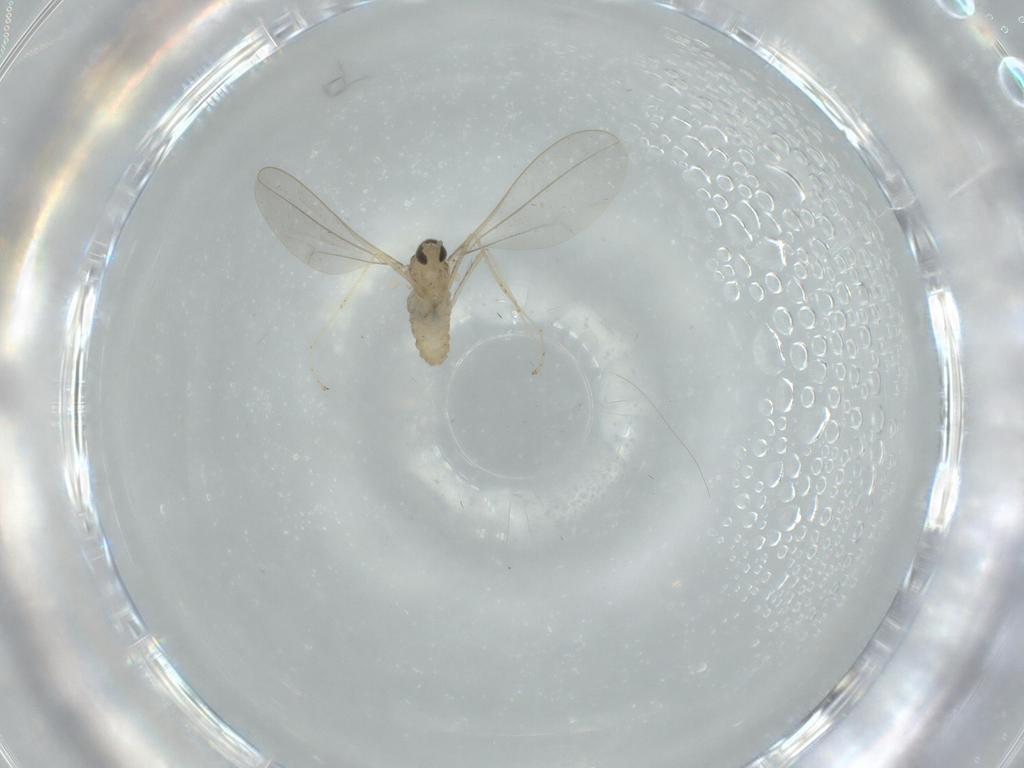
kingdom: Animalia
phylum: Arthropoda
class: Insecta
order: Diptera
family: Cecidomyiidae
